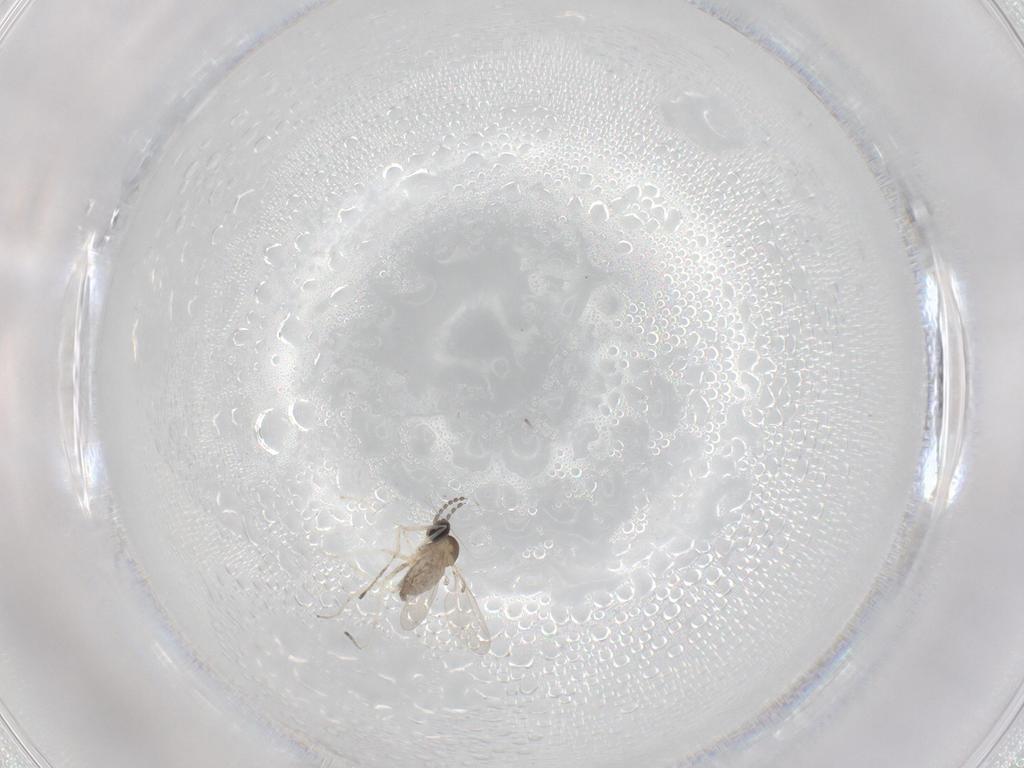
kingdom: Animalia
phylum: Arthropoda
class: Insecta
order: Diptera
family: Cecidomyiidae
